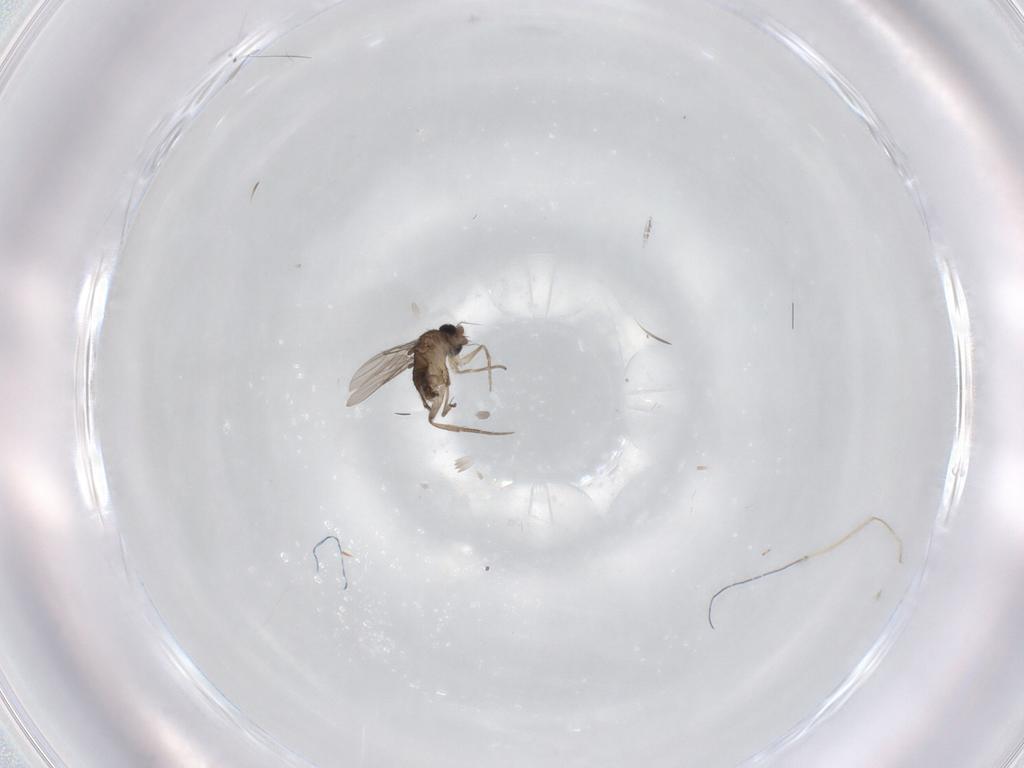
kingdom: Animalia
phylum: Arthropoda
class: Insecta
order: Diptera
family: Phoridae
